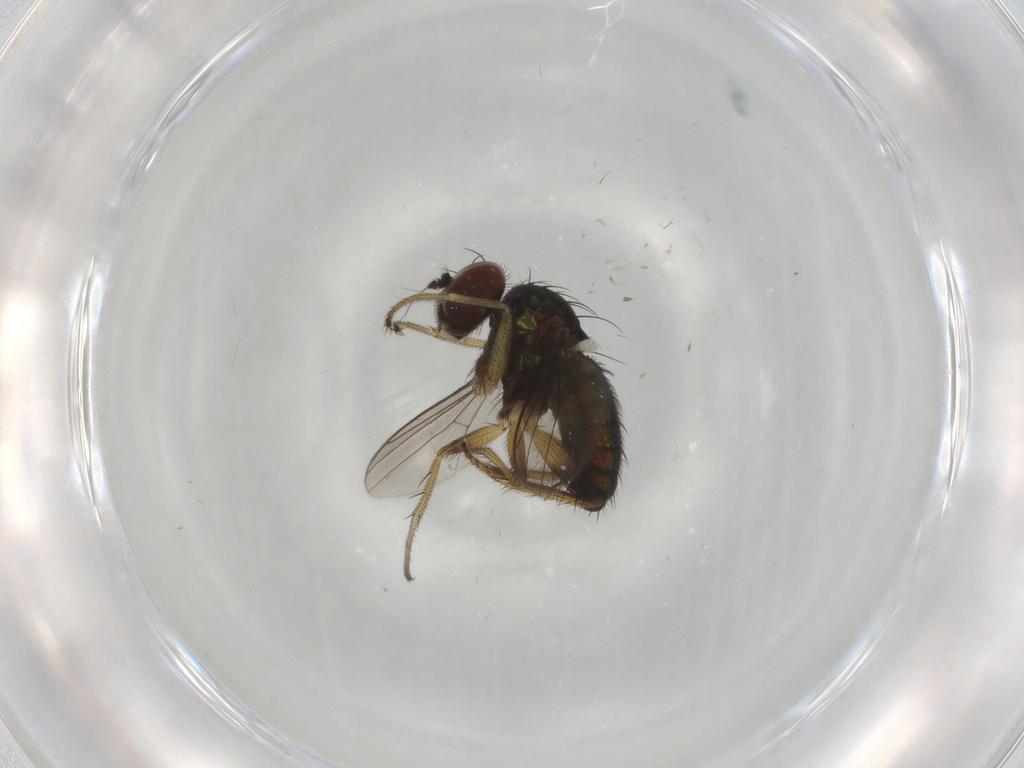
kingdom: Animalia
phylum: Arthropoda
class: Insecta
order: Diptera
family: Dolichopodidae
